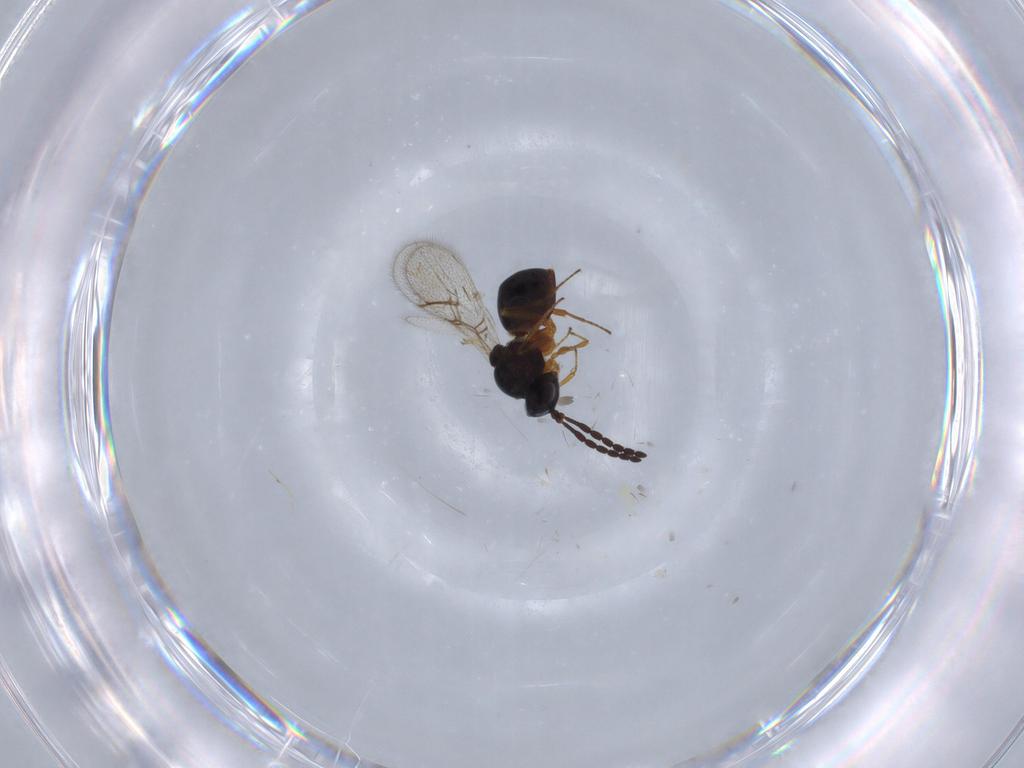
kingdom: Animalia
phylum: Arthropoda
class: Insecta
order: Hymenoptera
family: Figitidae
